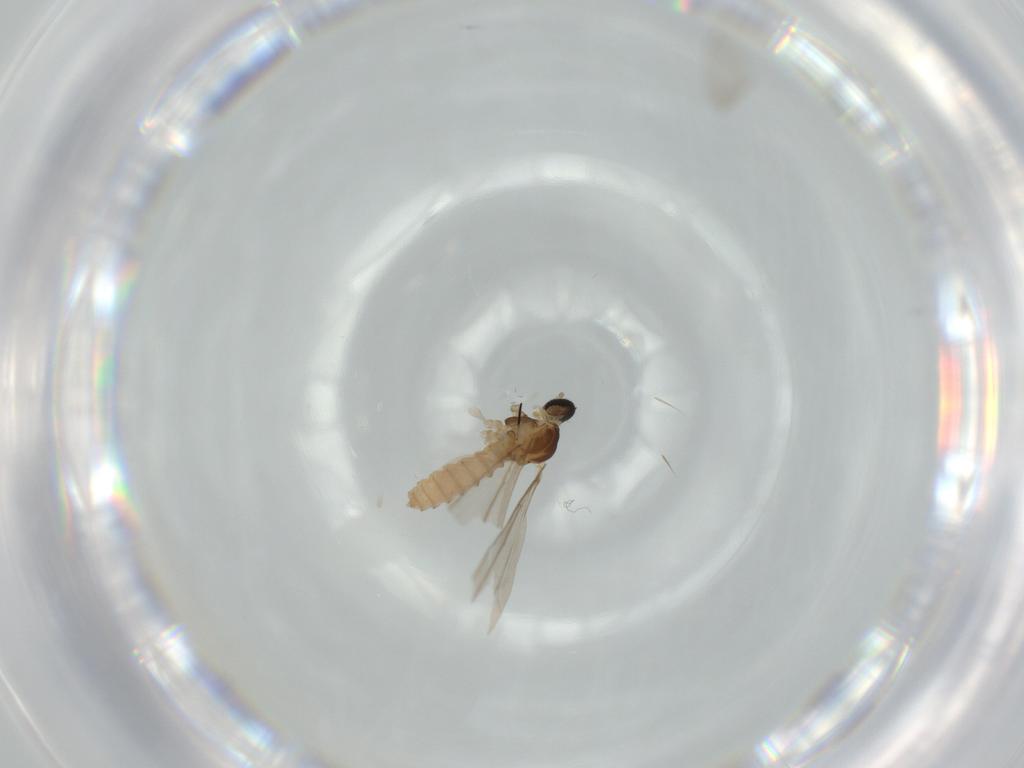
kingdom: Animalia
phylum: Arthropoda
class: Insecta
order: Diptera
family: Cecidomyiidae
